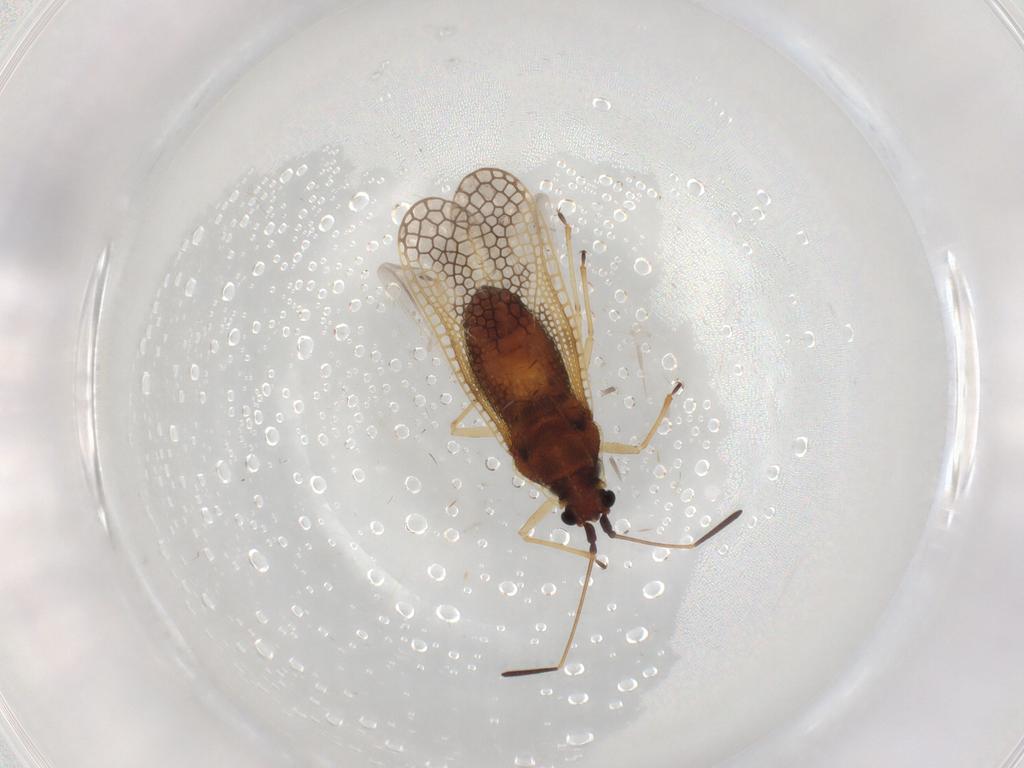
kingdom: Animalia
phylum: Arthropoda
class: Insecta
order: Hemiptera
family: Tingidae
